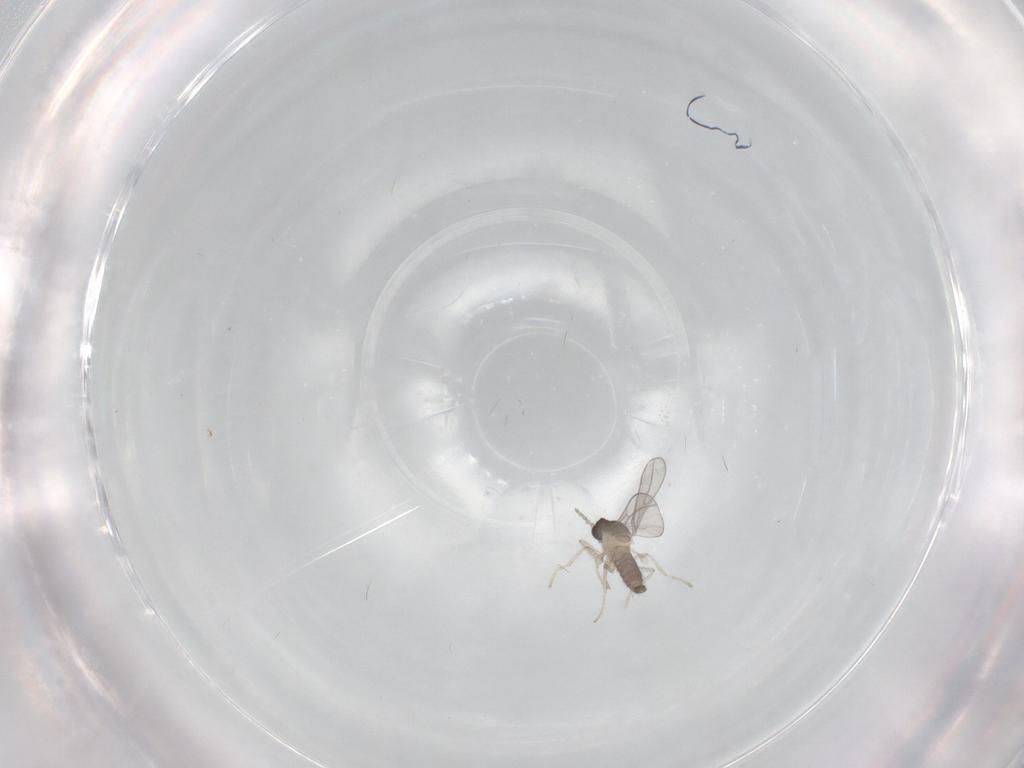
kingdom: Animalia
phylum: Arthropoda
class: Insecta
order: Diptera
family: Cecidomyiidae
